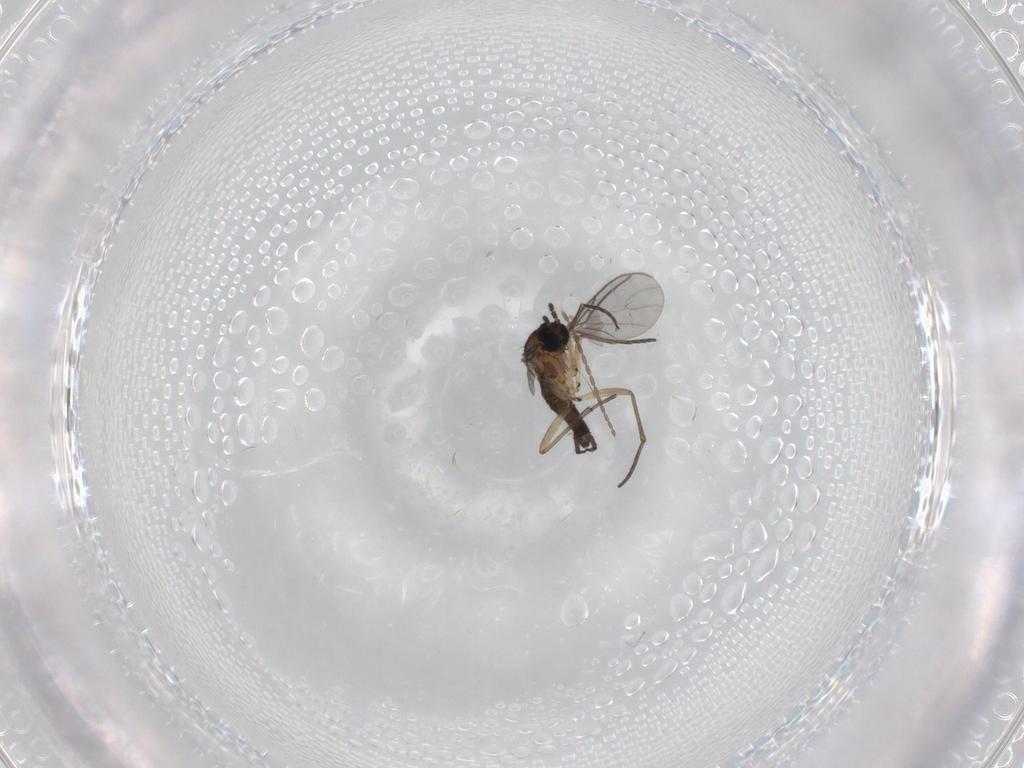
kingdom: Animalia
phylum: Arthropoda
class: Insecta
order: Diptera
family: Sciaridae
